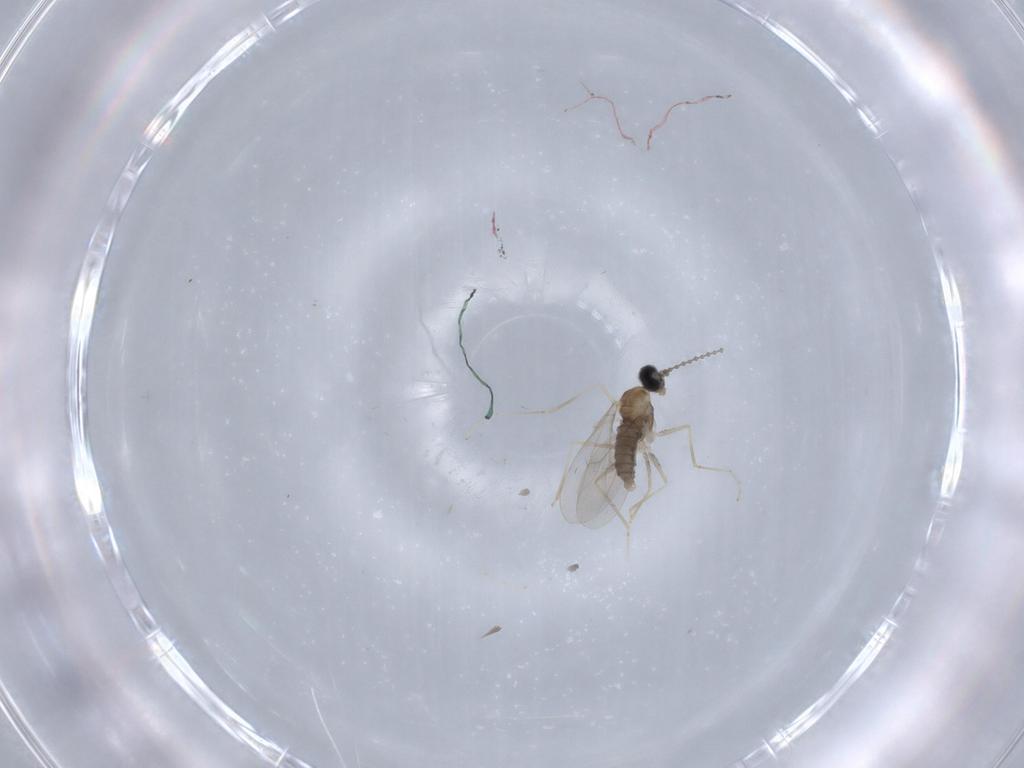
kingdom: Animalia
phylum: Arthropoda
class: Insecta
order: Diptera
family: Cecidomyiidae
